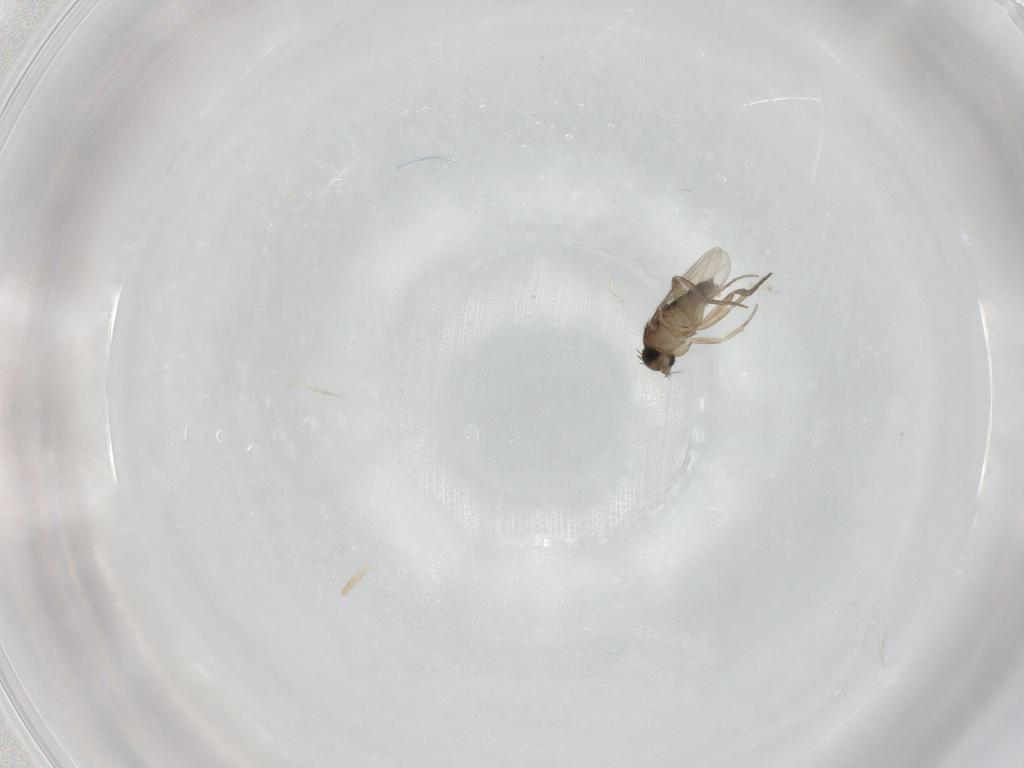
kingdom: Animalia
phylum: Arthropoda
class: Insecta
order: Diptera
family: Phoridae
